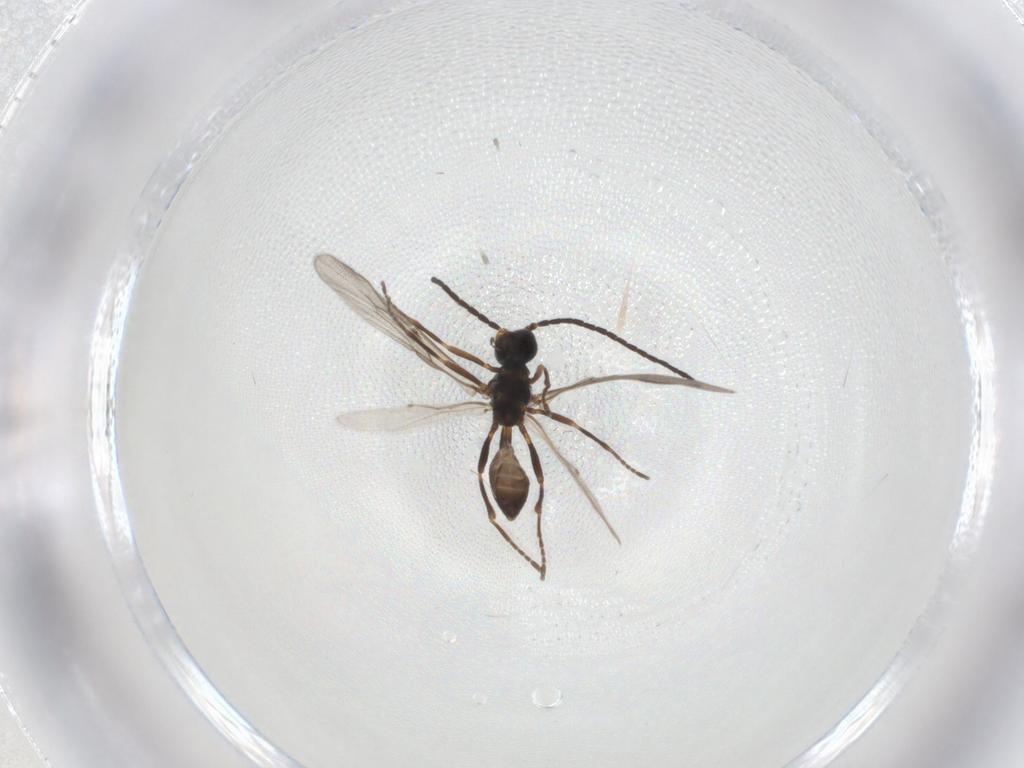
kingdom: Animalia
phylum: Arthropoda
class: Insecta
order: Hymenoptera
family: Braconidae
